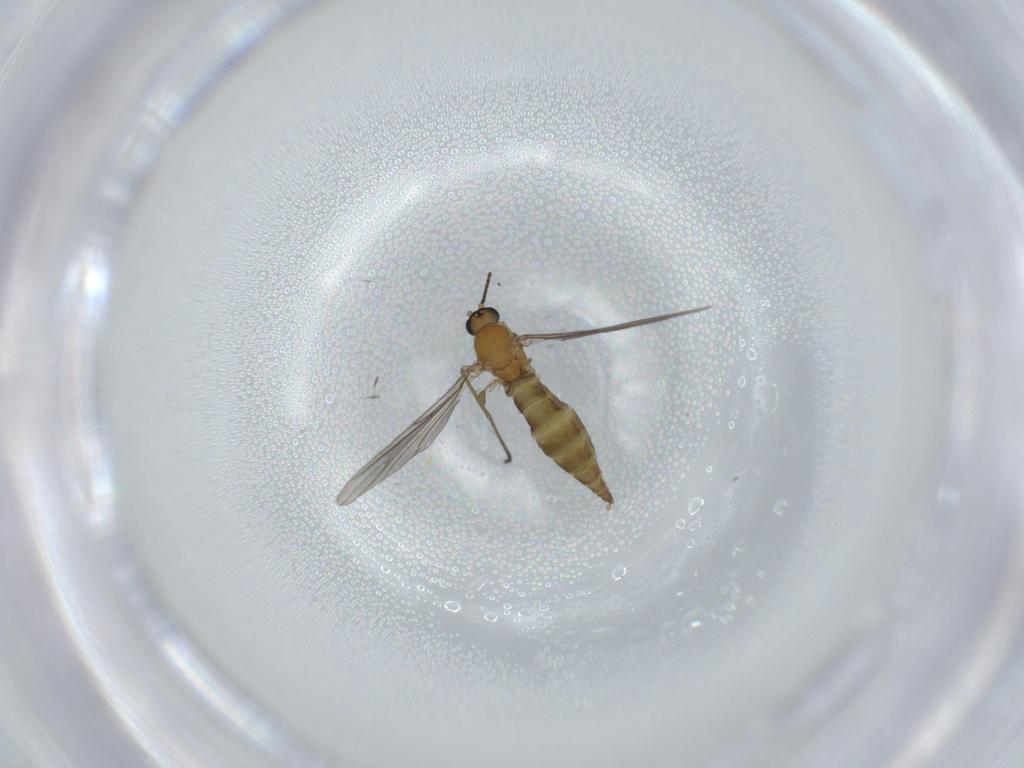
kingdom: Animalia
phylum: Arthropoda
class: Insecta
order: Diptera
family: Sciaridae
